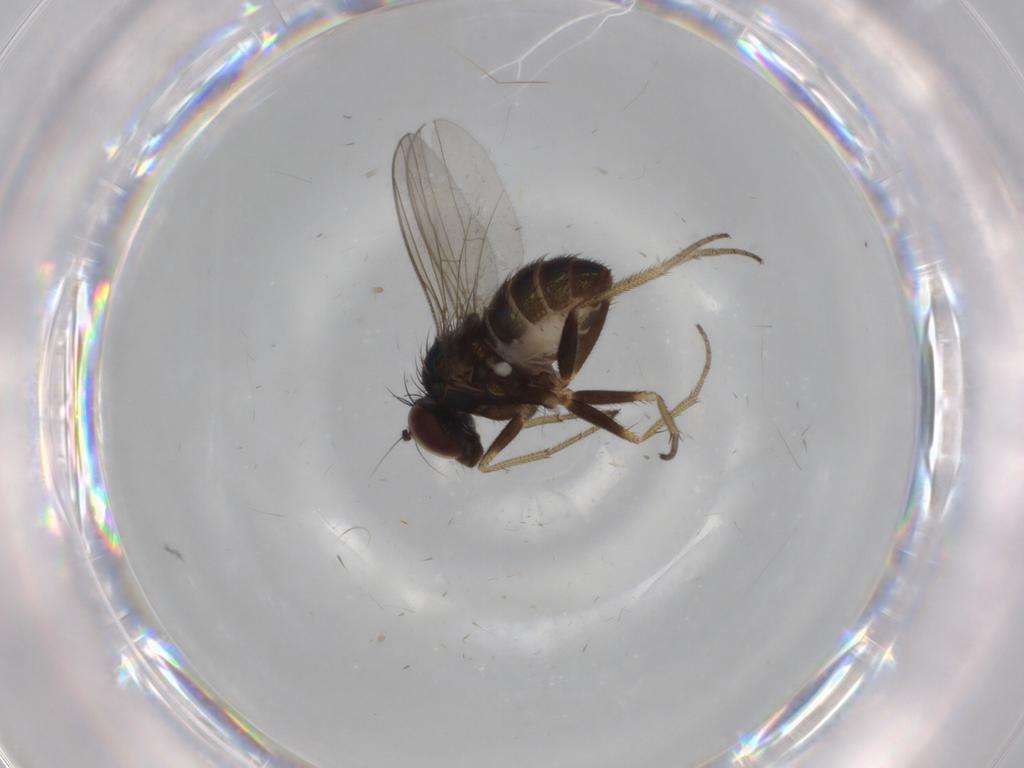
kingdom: Animalia
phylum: Arthropoda
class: Insecta
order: Diptera
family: Dolichopodidae
